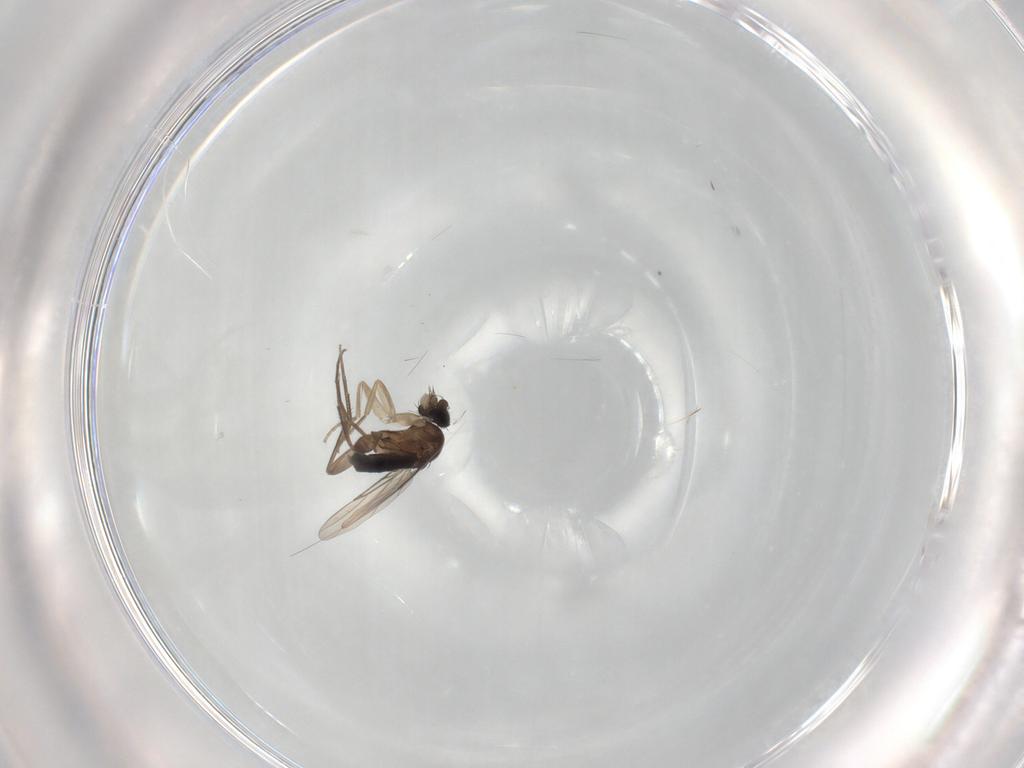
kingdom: Animalia
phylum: Arthropoda
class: Insecta
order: Diptera
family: Phoridae
